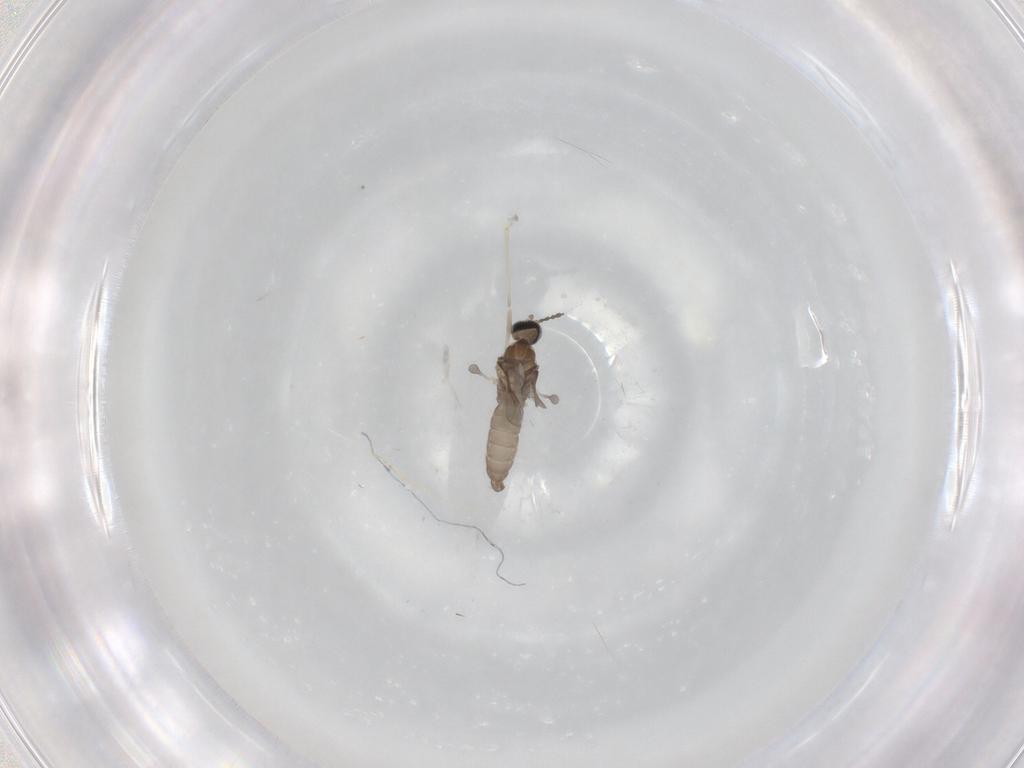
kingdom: Animalia
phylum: Arthropoda
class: Insecta
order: Diptera
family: Cecidomyiidae
